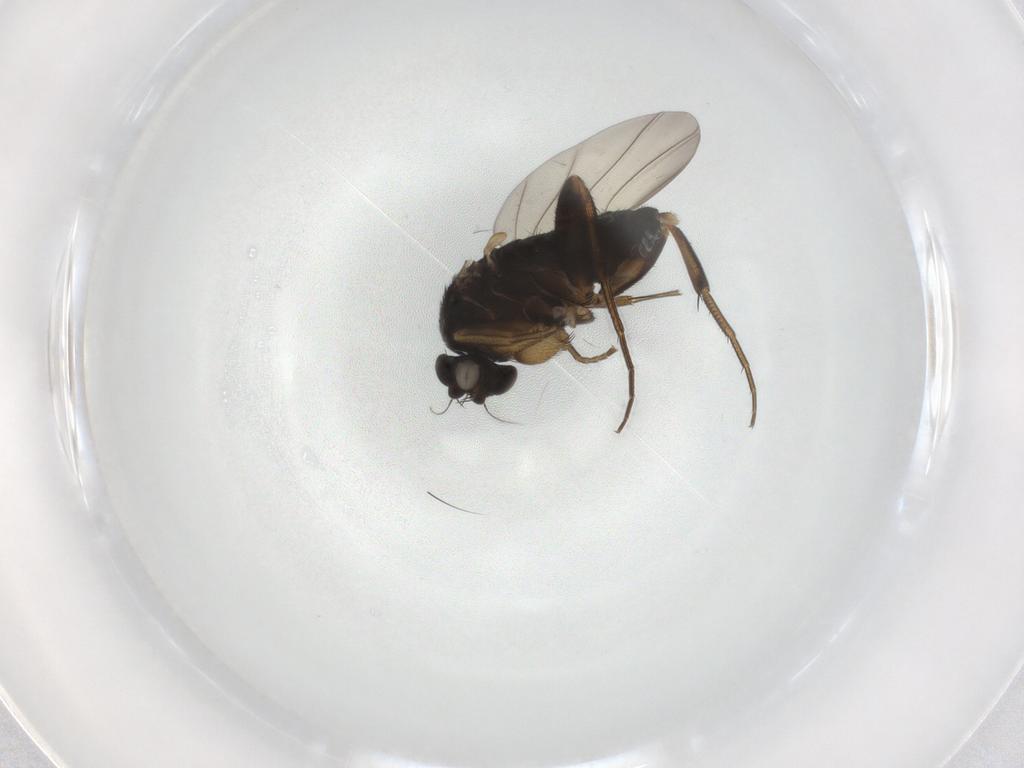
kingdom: Animalia
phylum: Arthropoda
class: Insecta
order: Diptera
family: Phoridae
